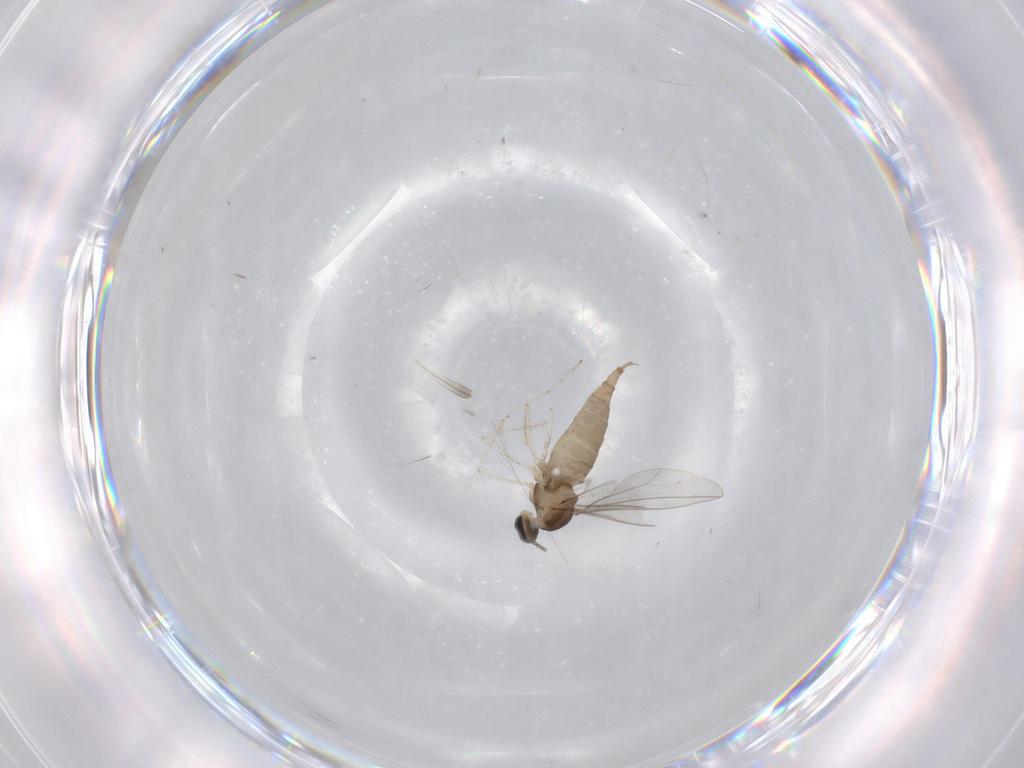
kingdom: Animalia
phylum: Arthropoda
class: Insecta
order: Diptera
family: Cecidomyiidae
